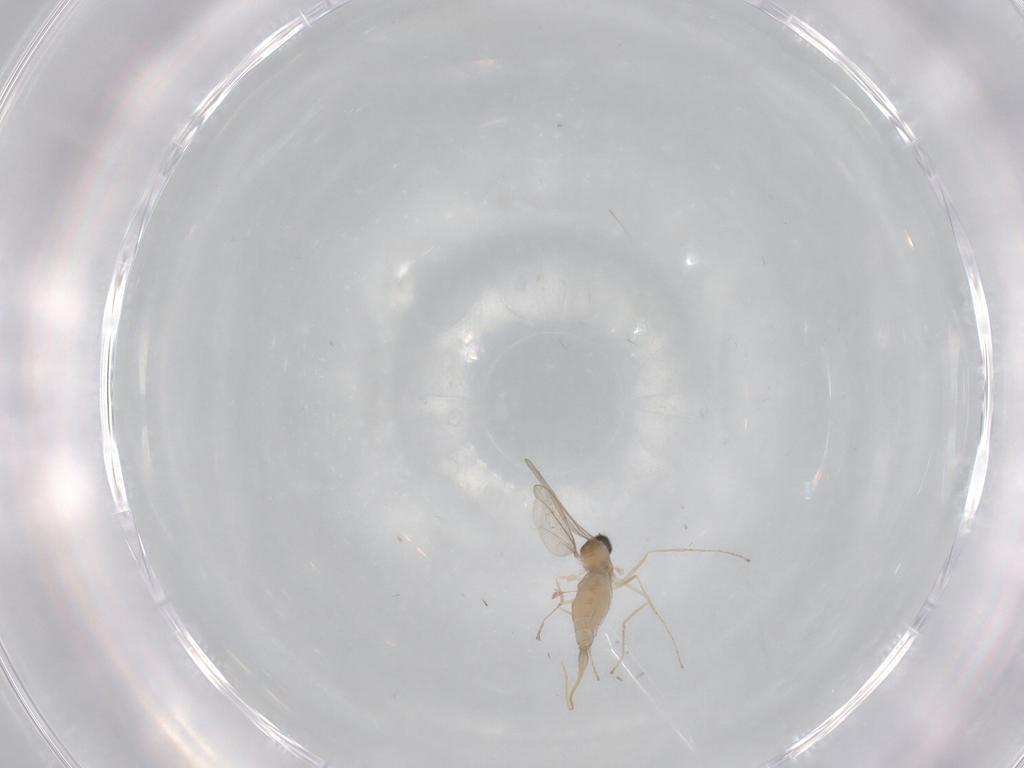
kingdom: Animalia
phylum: Arthropoda
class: Insecta
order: Diptera
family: Cecidomyiidae
